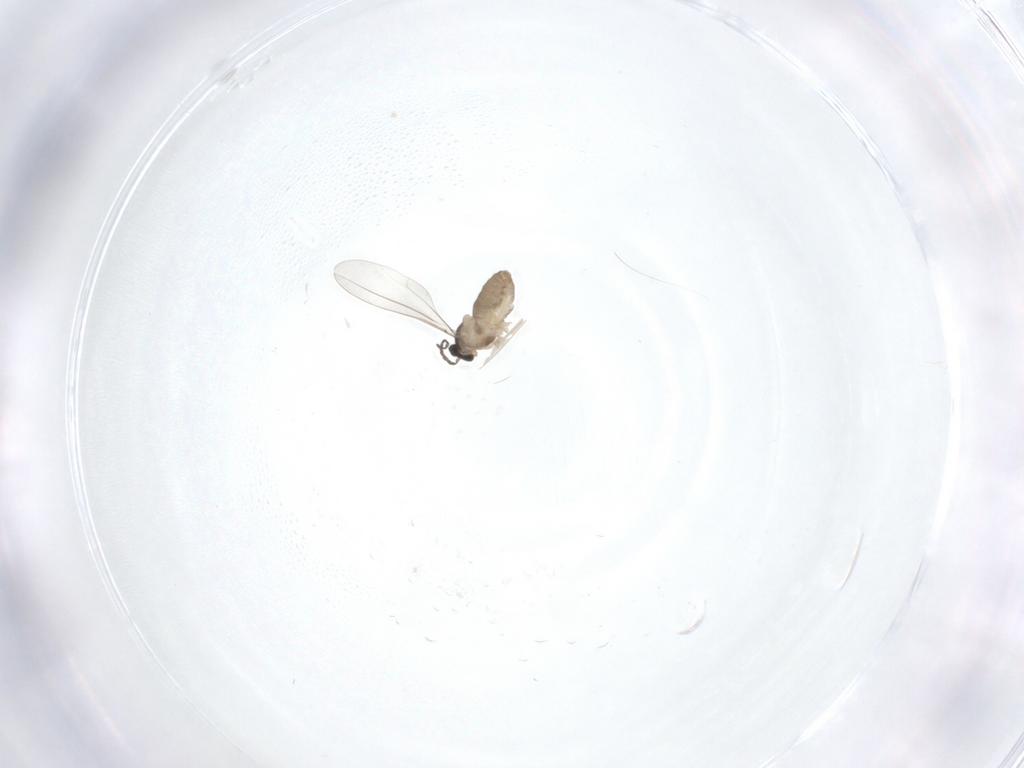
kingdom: Animalia
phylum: Arthropoda
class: Insecta
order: Diptera
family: Cecidomyiidae
